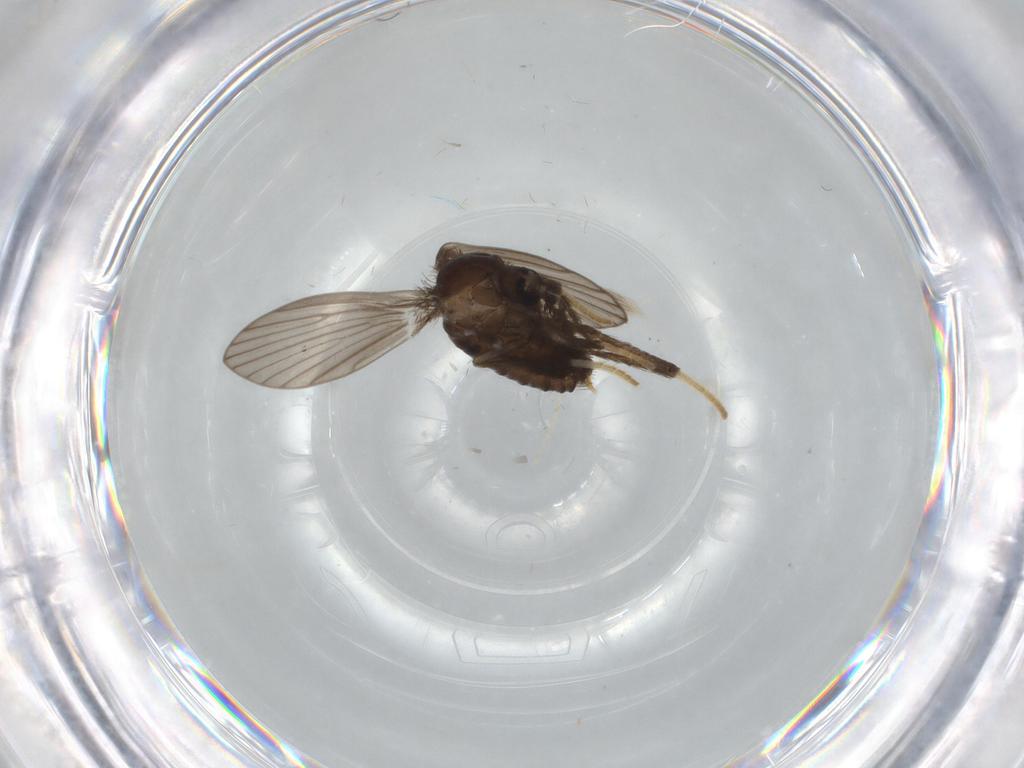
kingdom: Animalia
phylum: Arthropoda
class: Insecta
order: Diptera
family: Psychodidae
